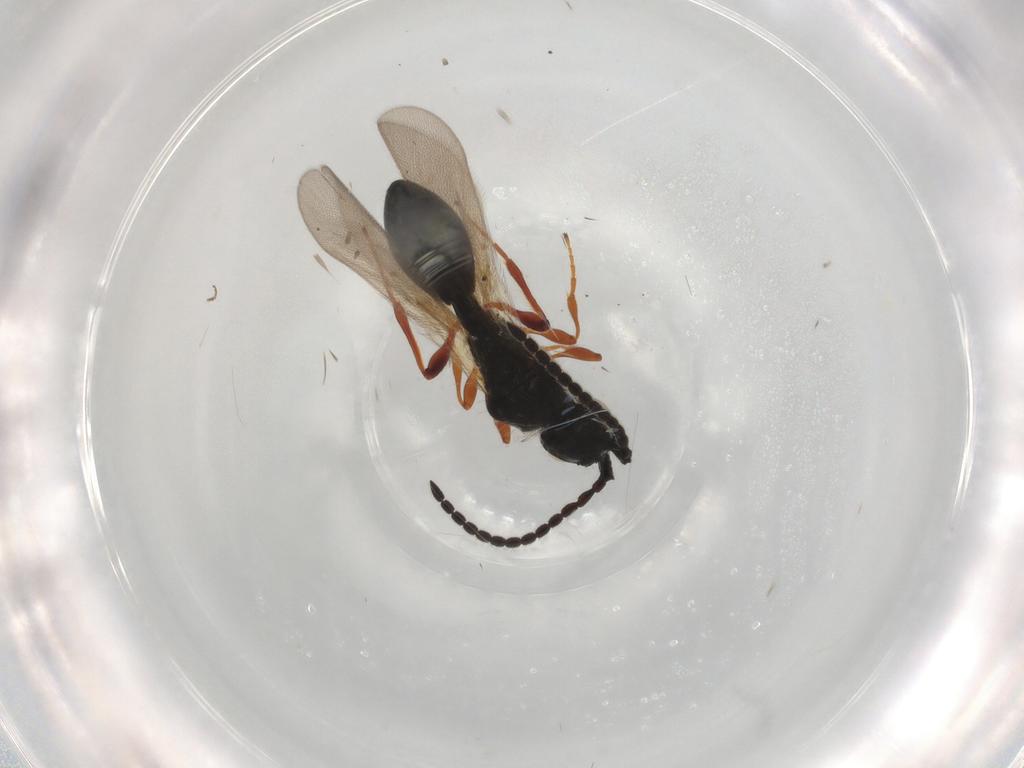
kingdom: Animalia
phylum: Arthropoda
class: Insecta
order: Hymenoptera
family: Diapriidae
